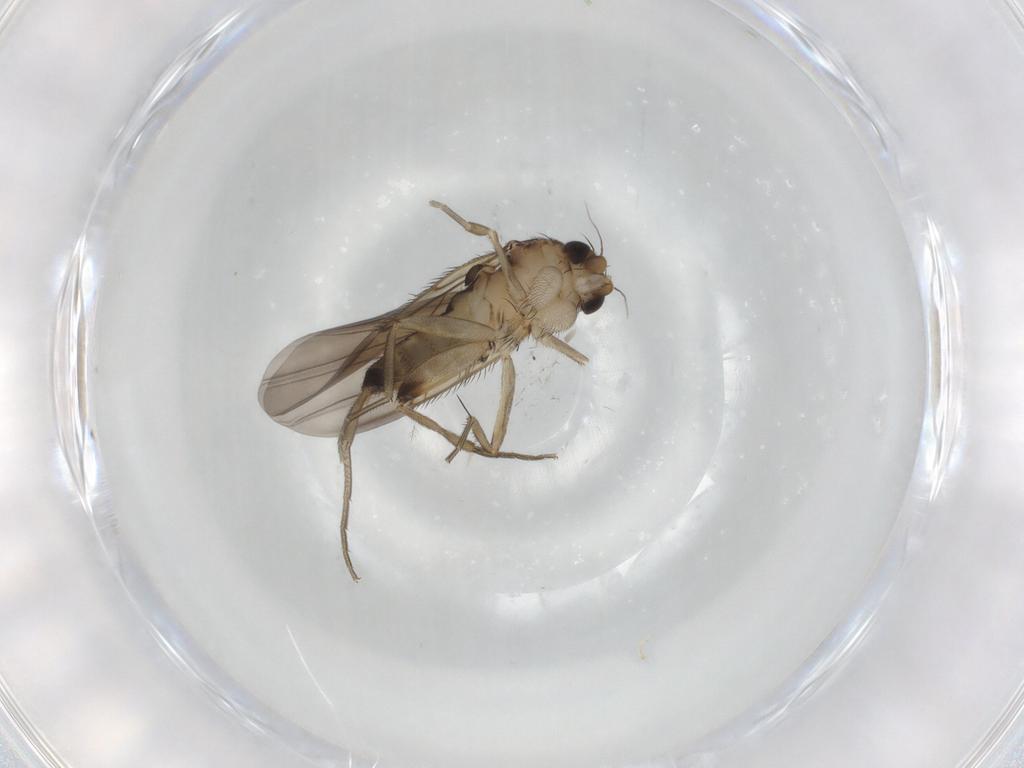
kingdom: Animalia
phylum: Arthropoda
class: Insecta
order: Diptera
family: Phoridae
